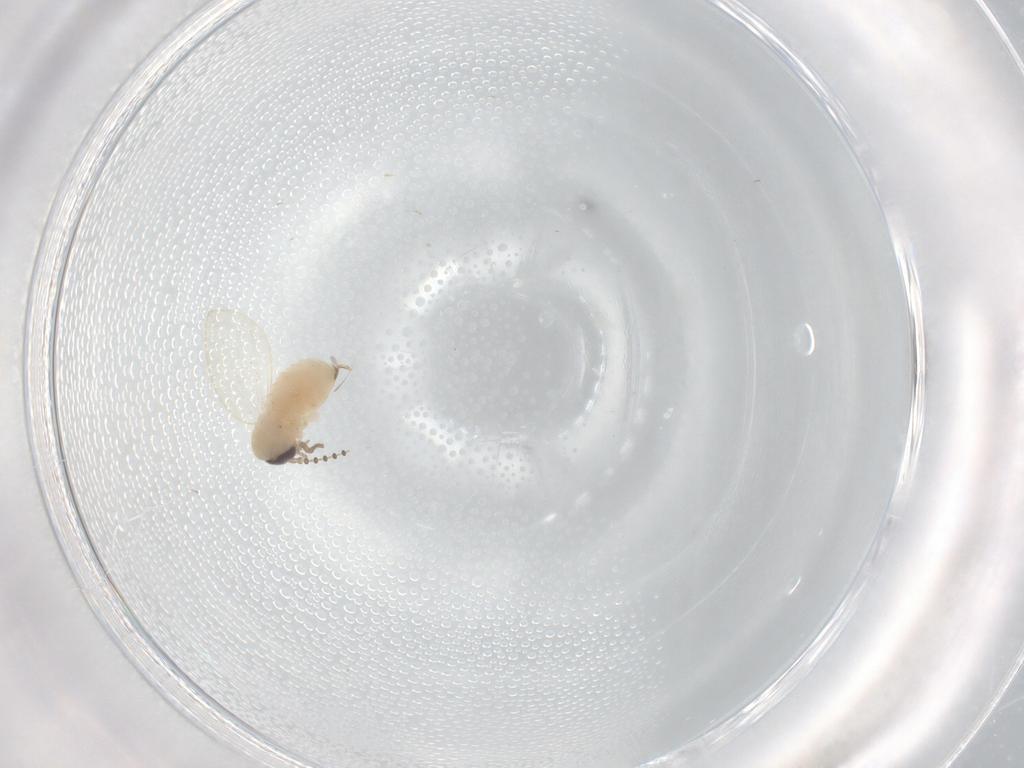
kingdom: Animalia
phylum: Arthropoda
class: Insecta
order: Diptera
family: Psychodidae
